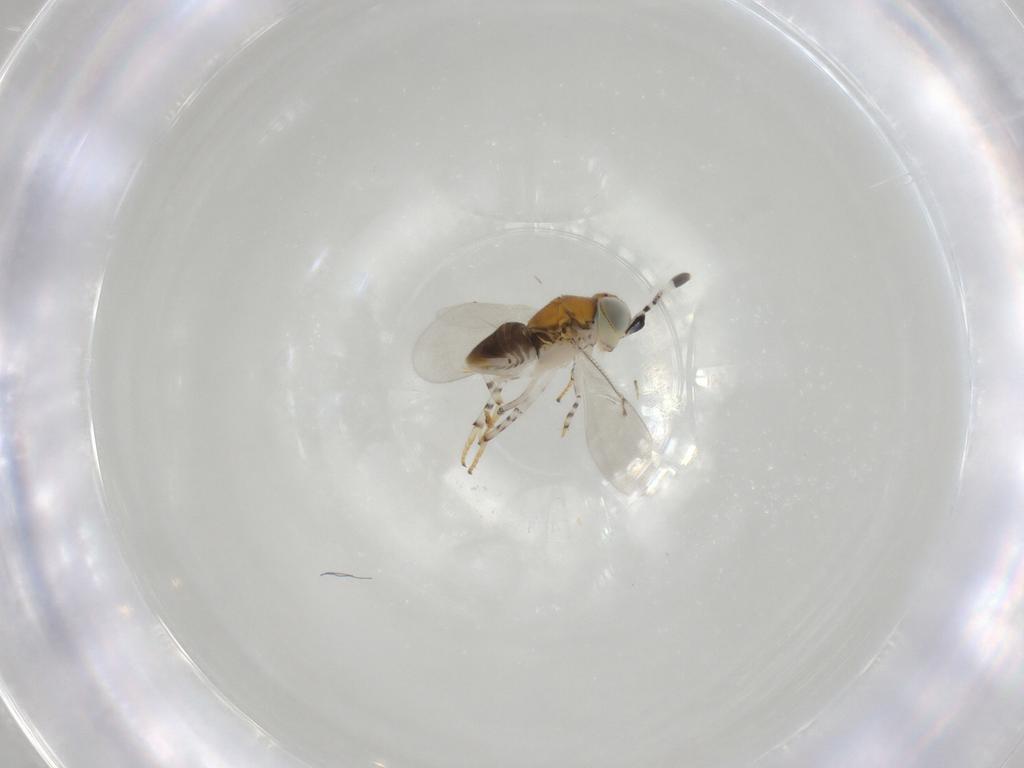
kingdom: Animalia
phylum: Arthropoda
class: Insecta
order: Hymenoptera
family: Encyrtidae
